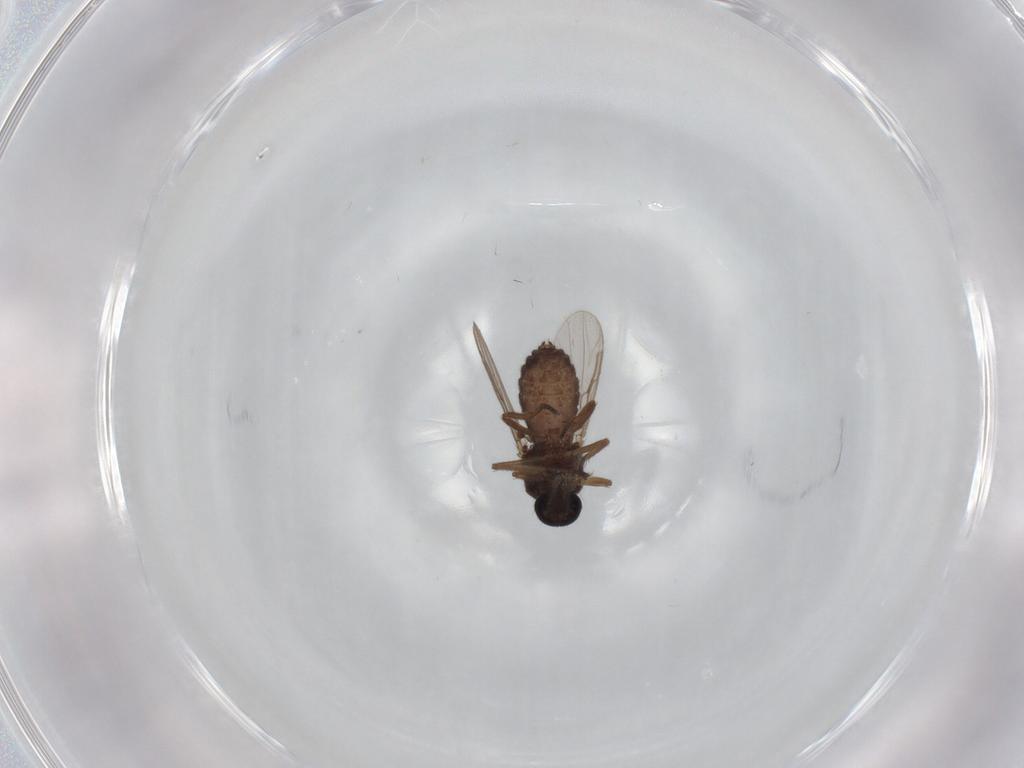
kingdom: Animalia
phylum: Arthropoda
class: Insecta
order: Diptera
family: Ceratopogonidae
